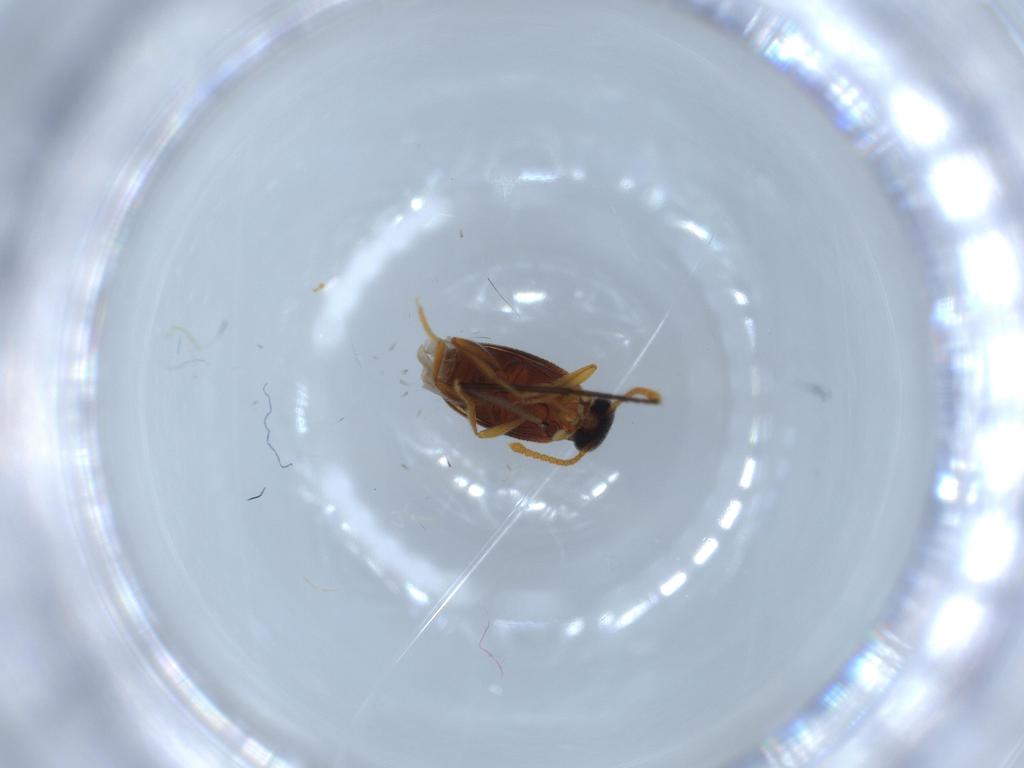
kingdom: Animalia
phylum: Arthropoda
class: Insecta
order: Coleoptera
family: Aderidae
